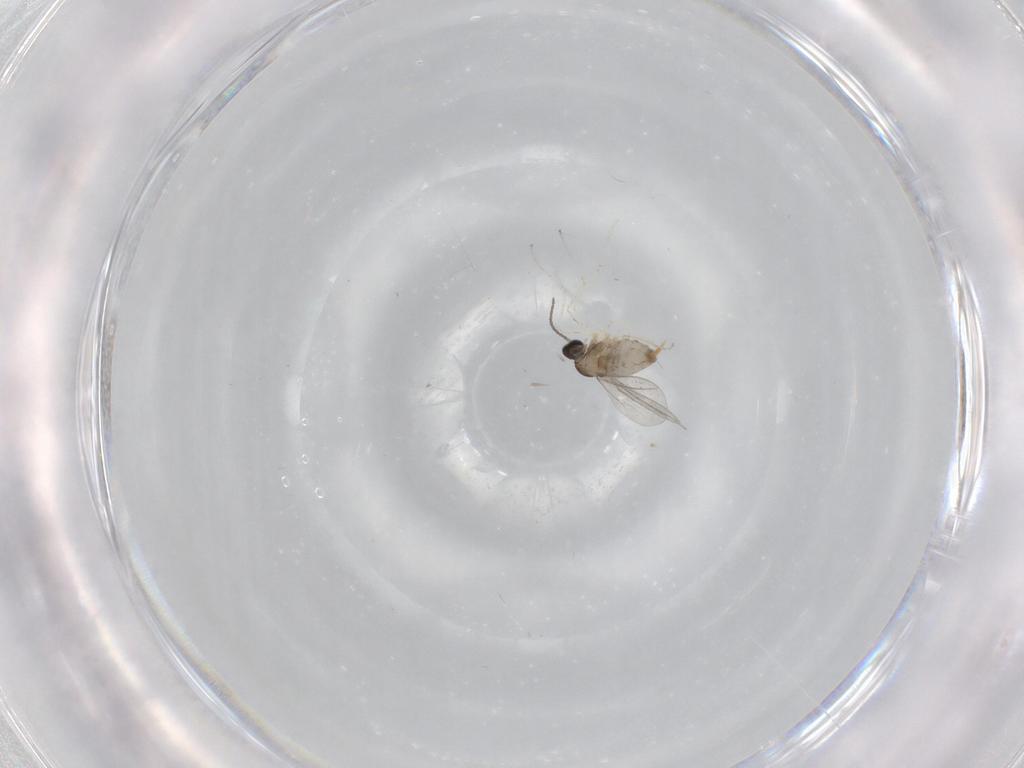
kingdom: Animalia
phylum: Arthropoda
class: Insecta
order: Diptera
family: Cecidomyiidae
